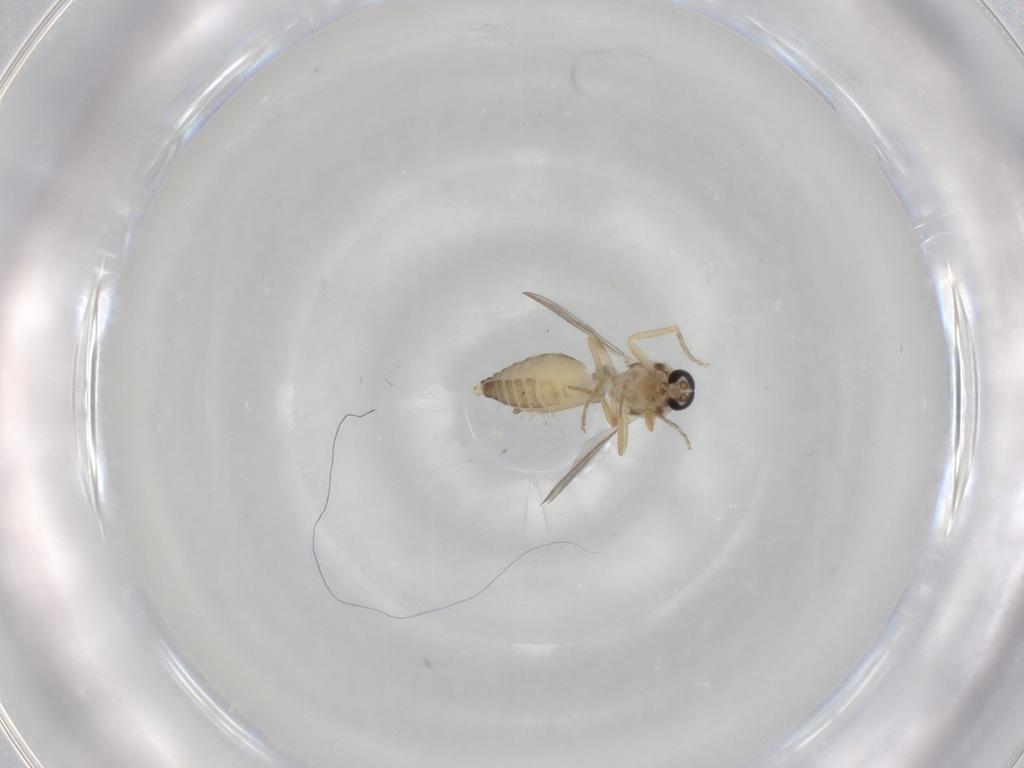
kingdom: Animalia
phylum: Arthropoda
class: Insecta
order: Diptera
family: Ceratopogonidae
